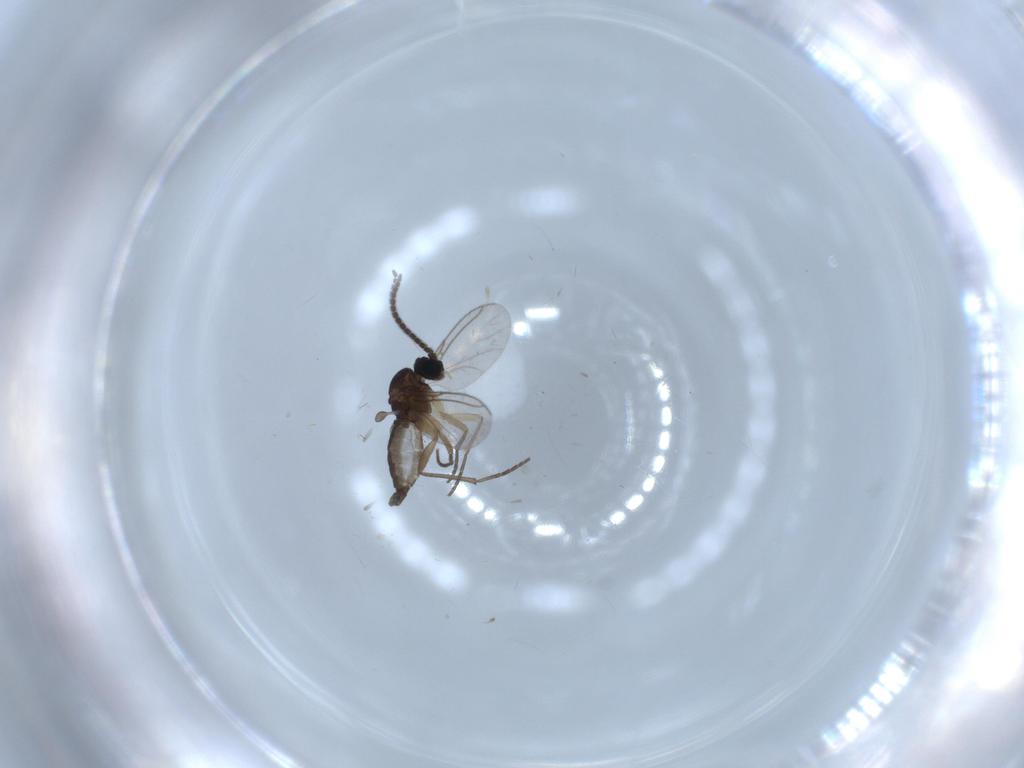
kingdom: Animalia
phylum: Arthropoda
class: Insecta
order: Diptera
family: Sciaridae
